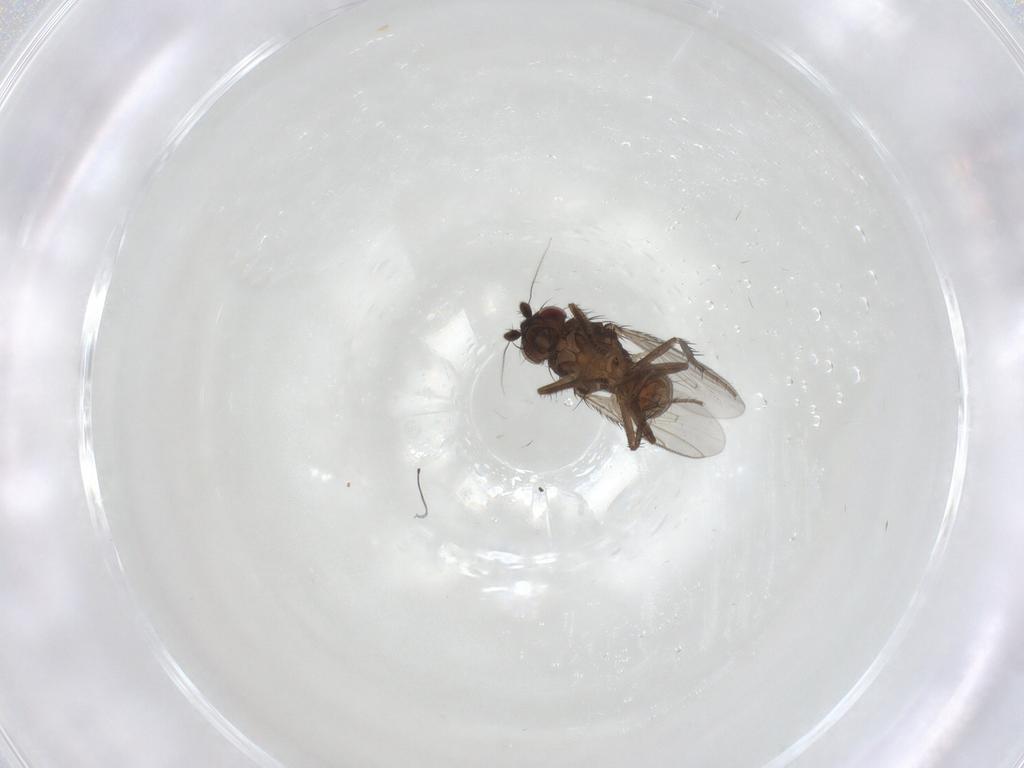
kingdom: Animalia
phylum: Arthropoda
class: Insecta
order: Diptera
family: Sphaeroceridae
